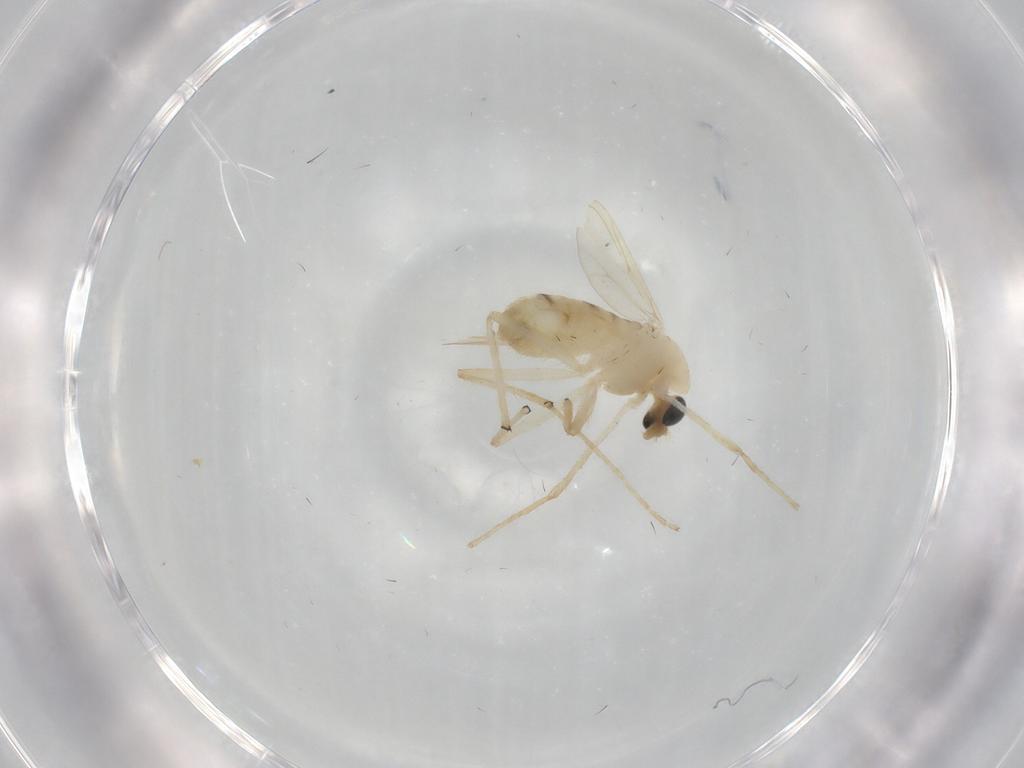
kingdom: Animalia
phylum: Arthropoda
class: Insecta
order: Diptera
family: Chironomidae
